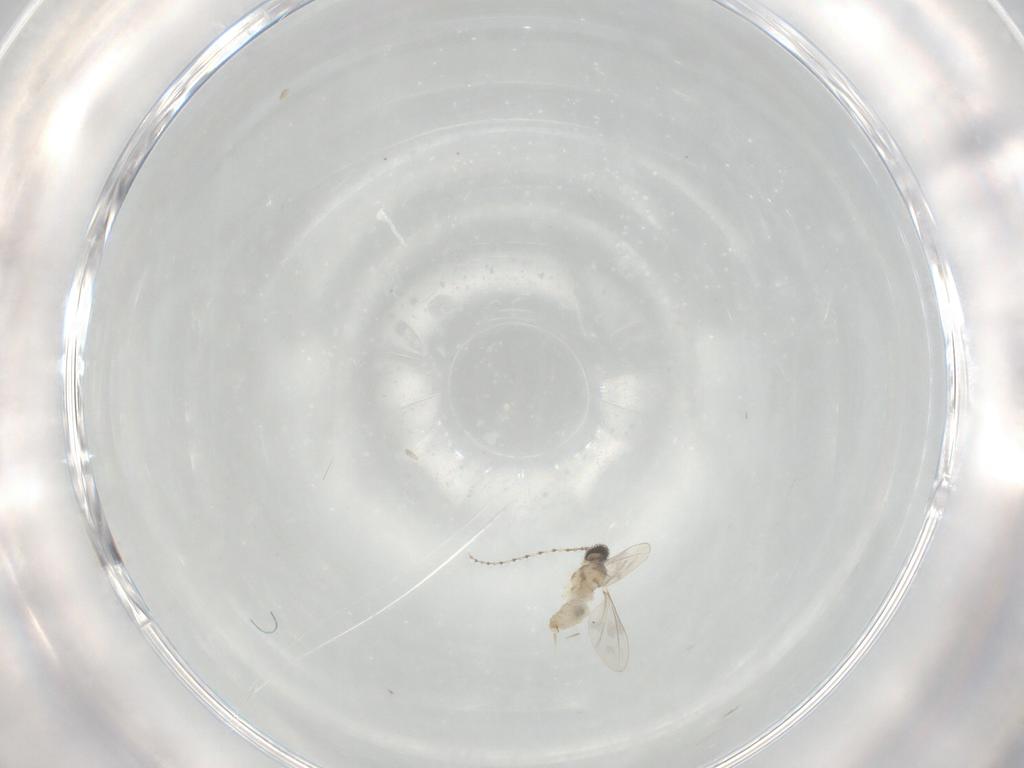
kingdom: Animalia
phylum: Arthropoda
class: Insecta
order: Diptera
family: Cecidomyiidae
